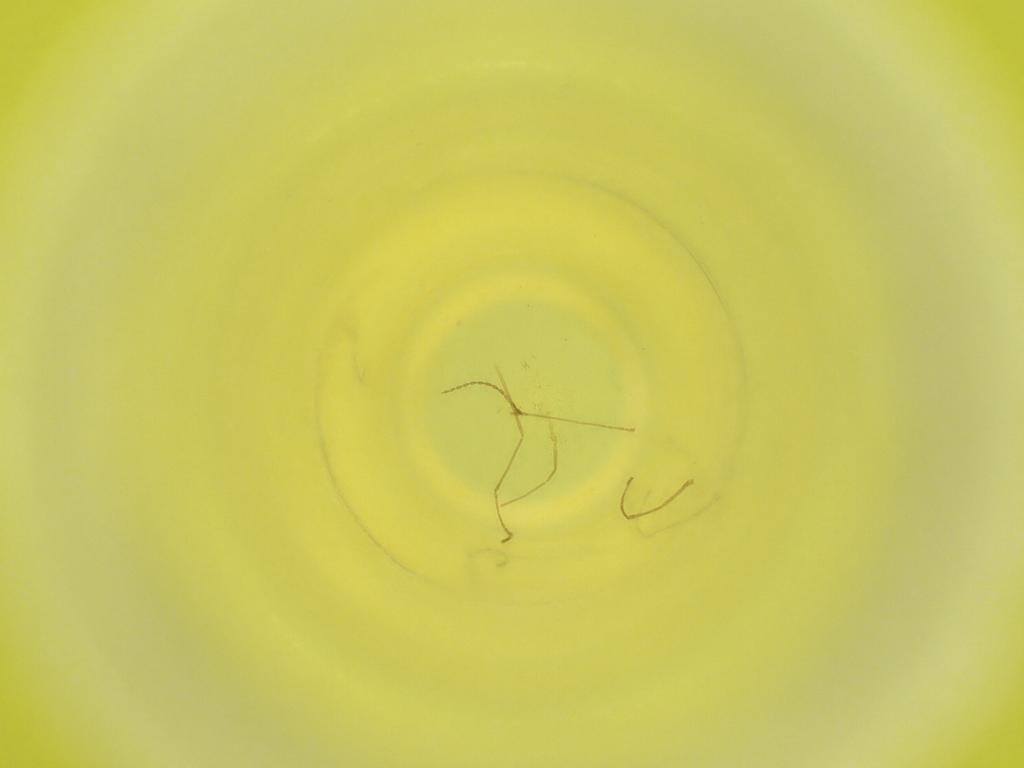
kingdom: Animalia
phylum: Arthropoda
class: Insecta
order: Diptera
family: Cecidomyiidae
